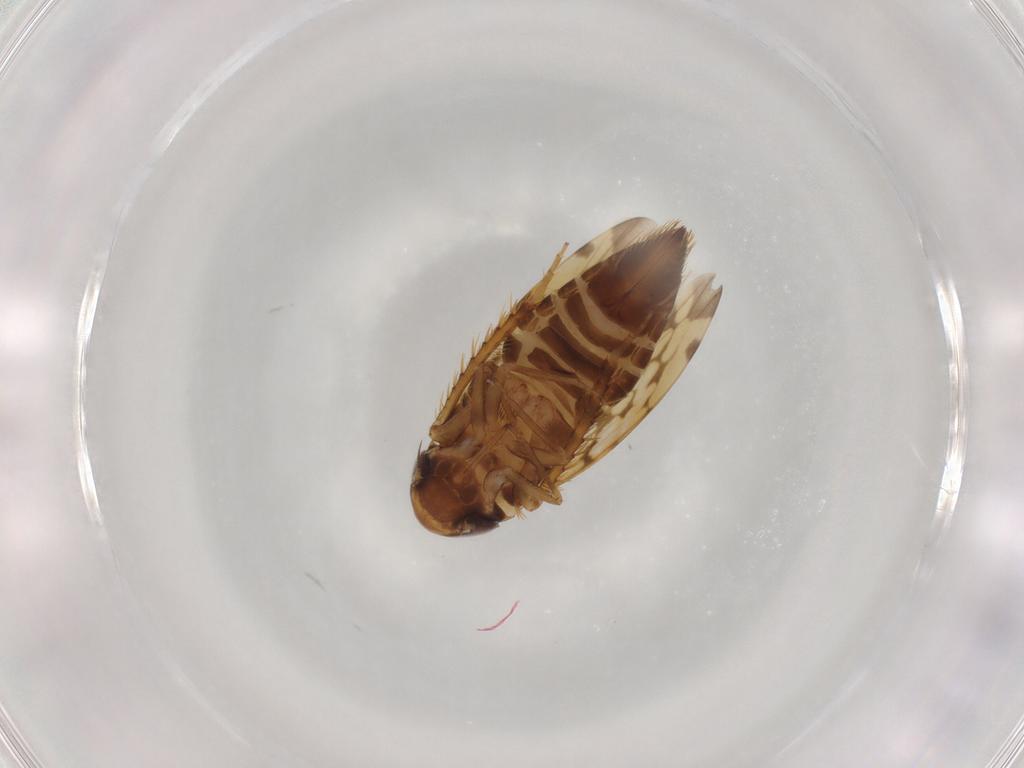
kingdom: Animalia
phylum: Arthropoda
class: Insecta
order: Hemiptera
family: Cicadellidae
